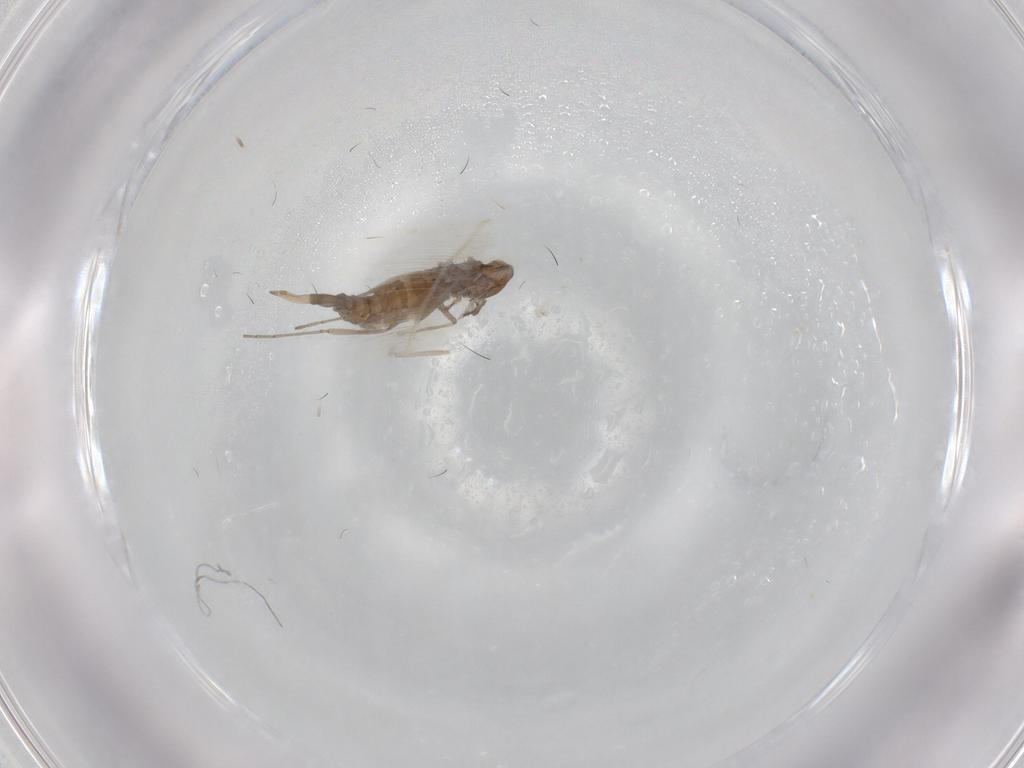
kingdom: Animalia
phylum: Arthropoda
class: Insecta
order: Diptera
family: Cecidomyiidae
